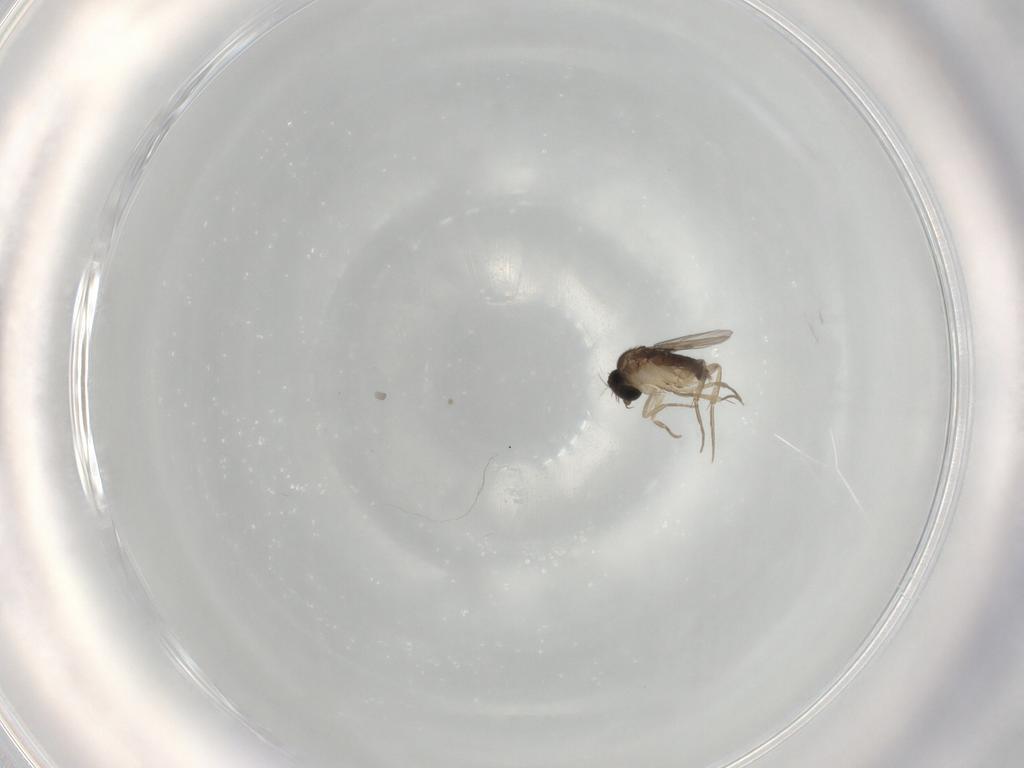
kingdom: Animalia
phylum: Arthropoda
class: Insecta
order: Diptera
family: Phoridae
